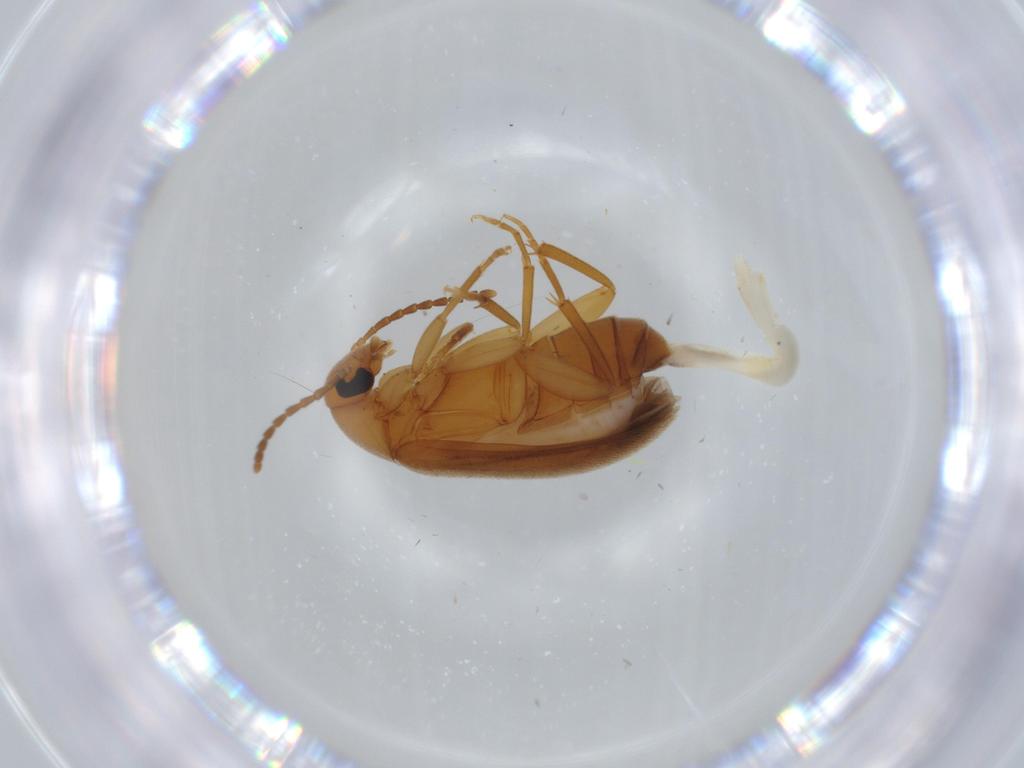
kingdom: Animalia
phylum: Arthropoda
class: Insecta
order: Coleoptera
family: Scraptiidae
